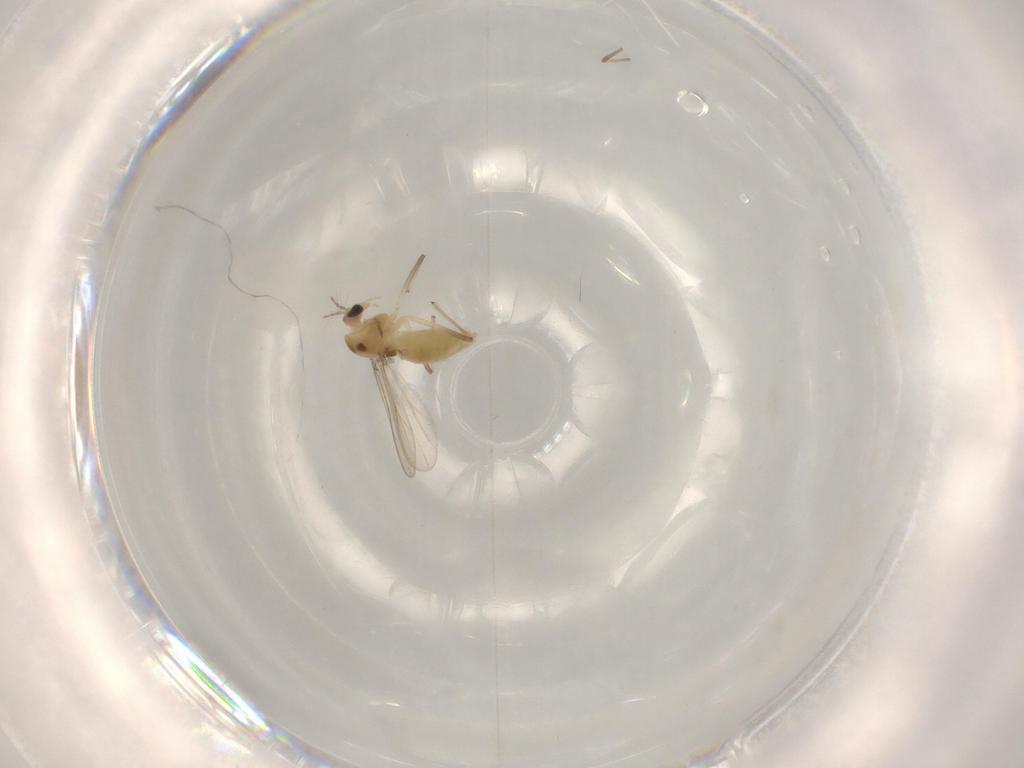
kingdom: Animalia
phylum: Arthropoda
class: Insecta
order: Diptera
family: Chironomidae
